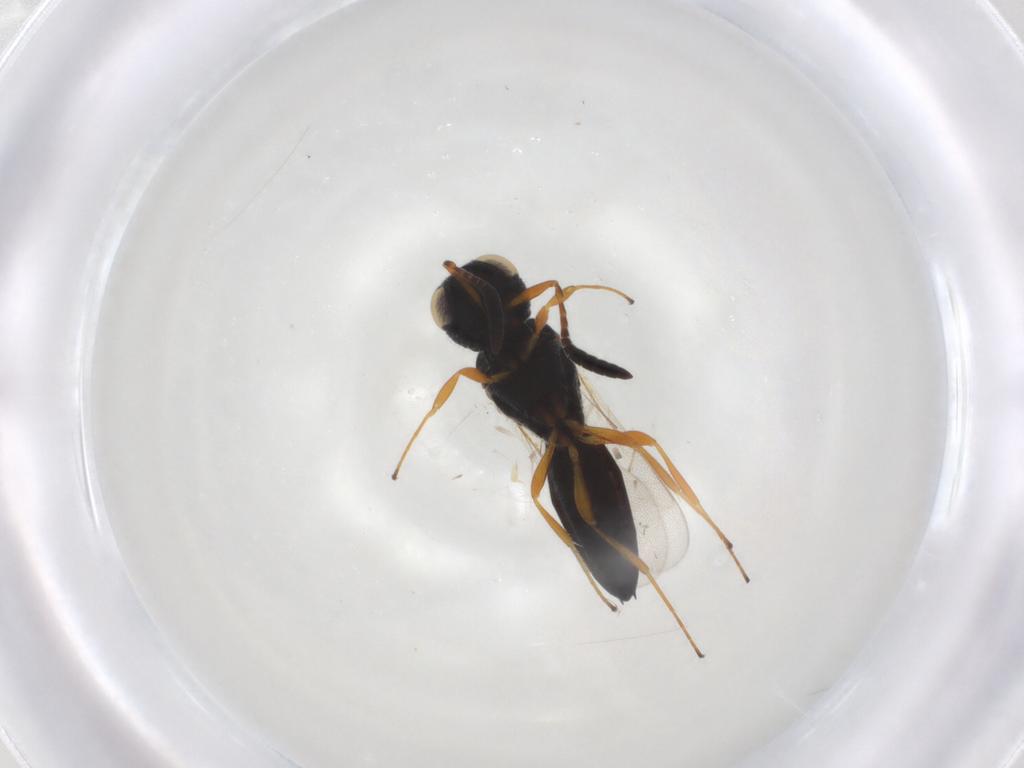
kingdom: Animalia
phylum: Arthropoda
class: Insecta
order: Hymenoptera
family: Scelionidae
